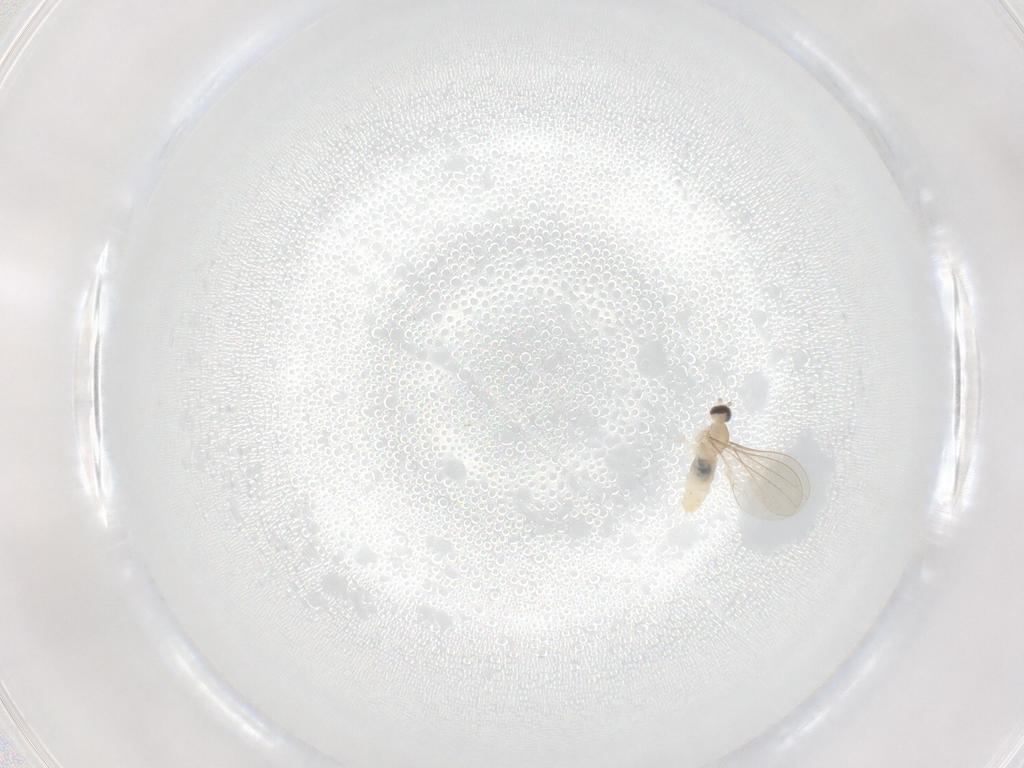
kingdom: Animalia
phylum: Arthropoda
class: Insecta
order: Diptera
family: Cecidomyiidae
